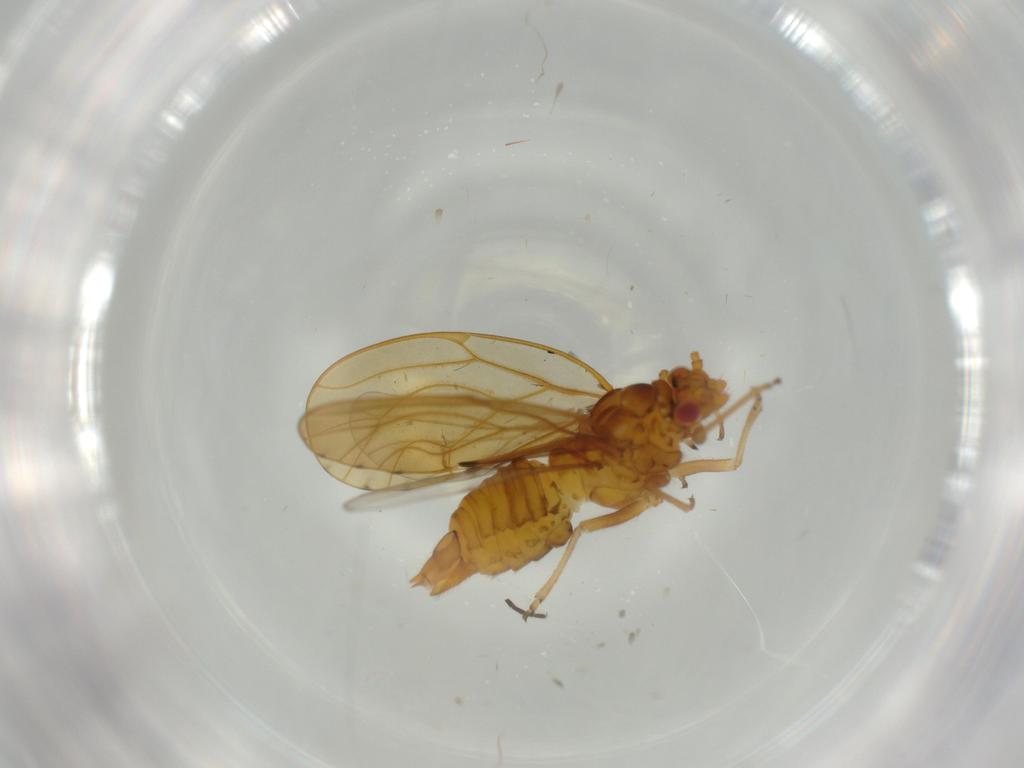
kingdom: Animalia
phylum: Arthropoda
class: Insecta
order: Hemiptera
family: Psylloidea_incertae_sedis
